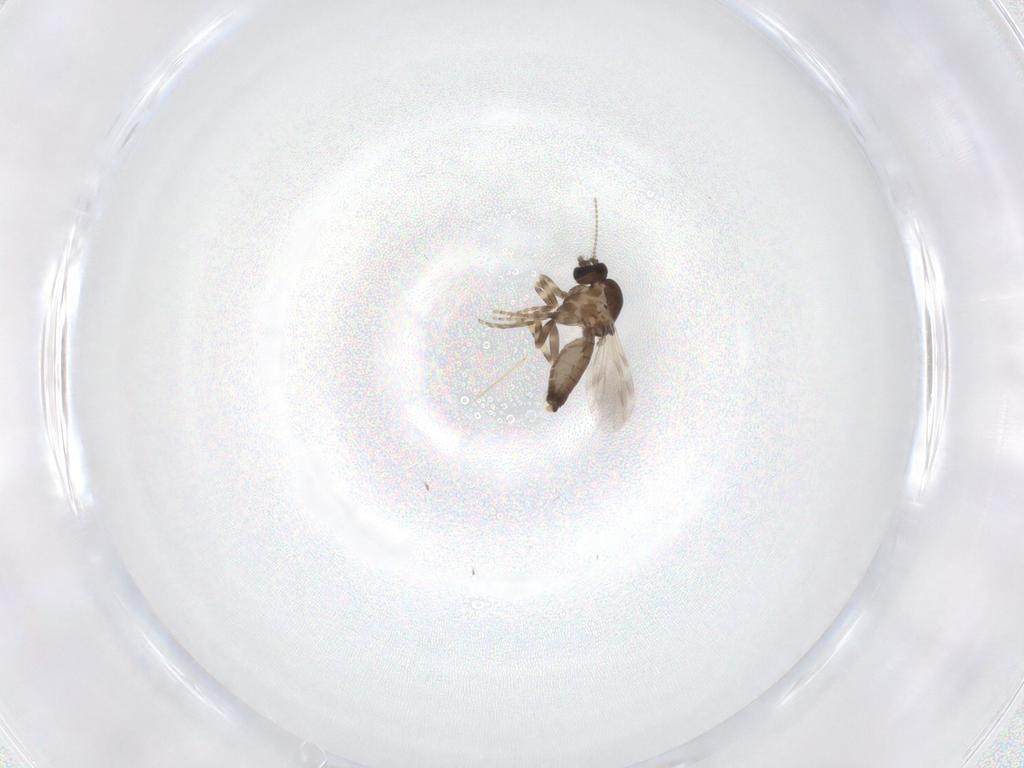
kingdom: Animalia
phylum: Arthropoda
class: Insecta
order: Diptera
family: Ceratopogonidae
